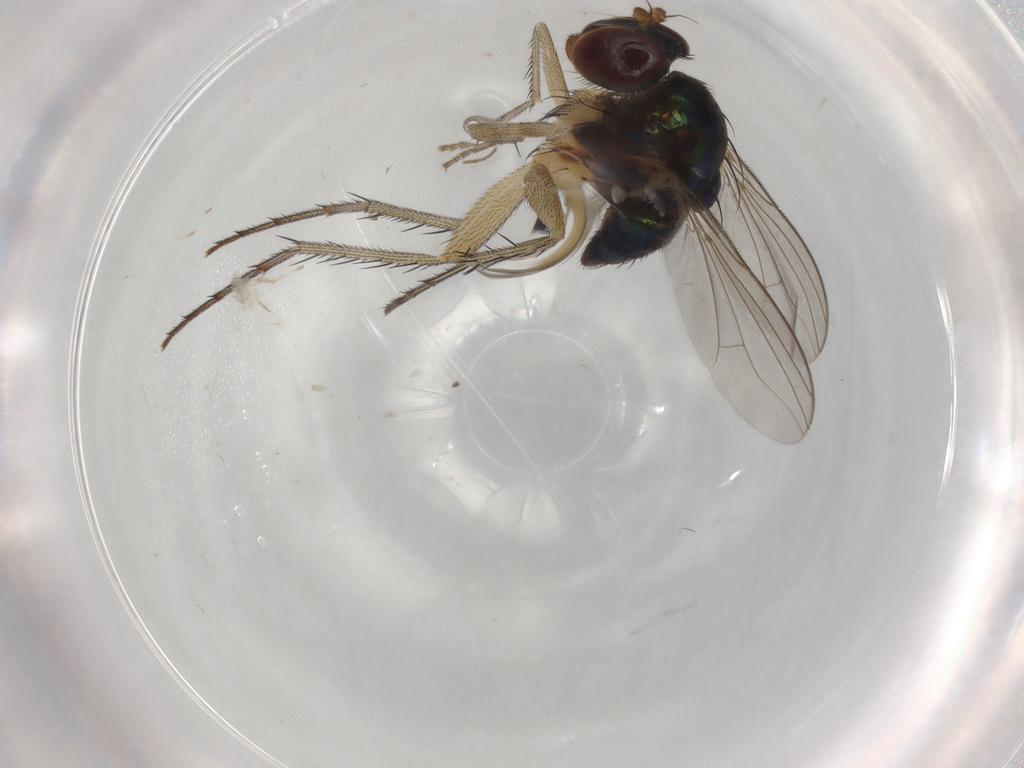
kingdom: Animalia
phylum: Arthropoda
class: Insecta
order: Diptera
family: Dolichopodidae
